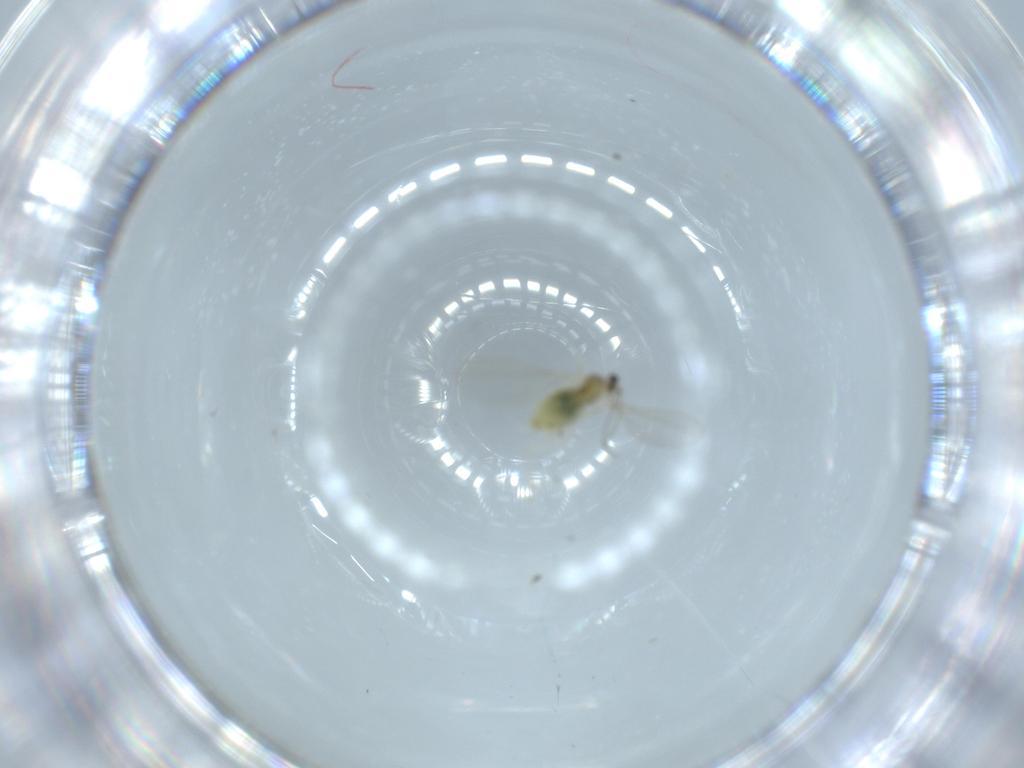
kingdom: Animalia
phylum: Arthropoda
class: Insecta
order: Diptera
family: Cecidomyiidae
